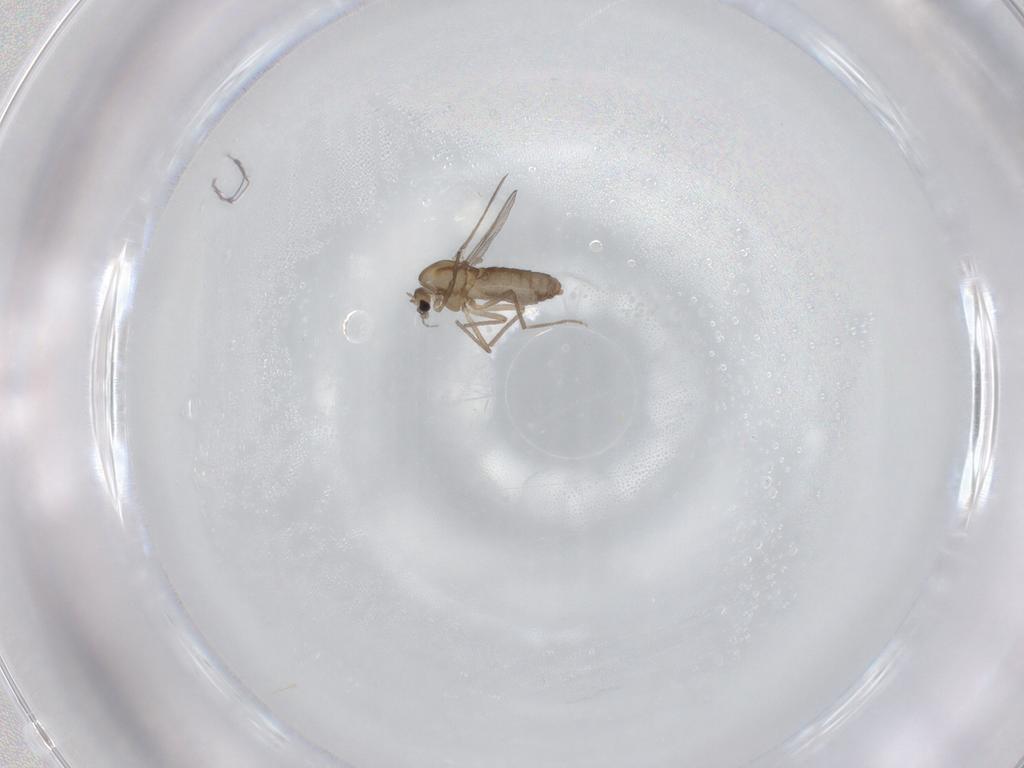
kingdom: Animalia
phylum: Arthropoda
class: Insecta
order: Diptera
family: Chironomidae
